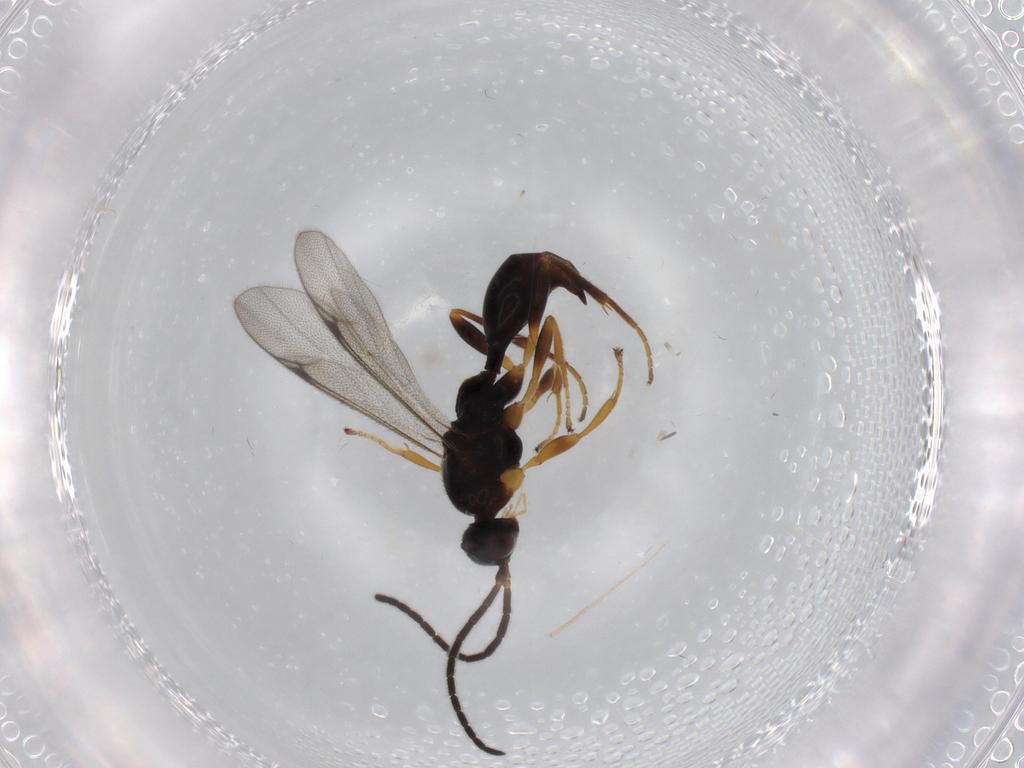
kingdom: Animalia
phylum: Arthropoda
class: Insecta
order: Hymenoptera
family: Proctotrupidae
